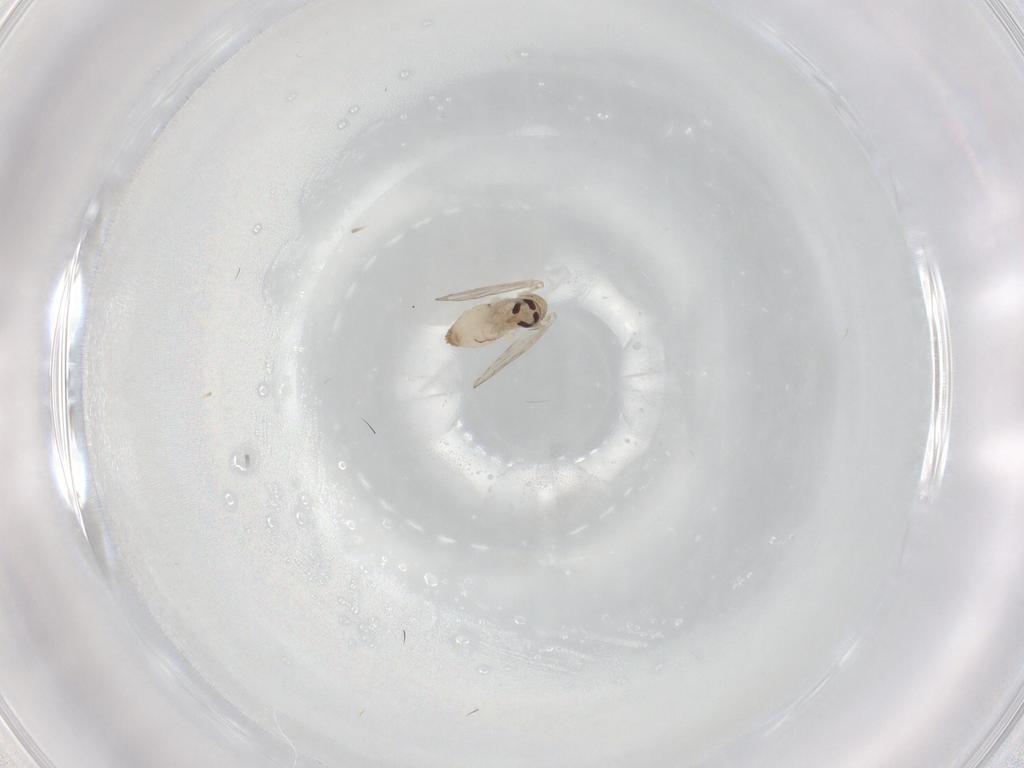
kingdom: Animalia
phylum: Arthropoda
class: Insecta
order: Diptera
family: Psychodidae
